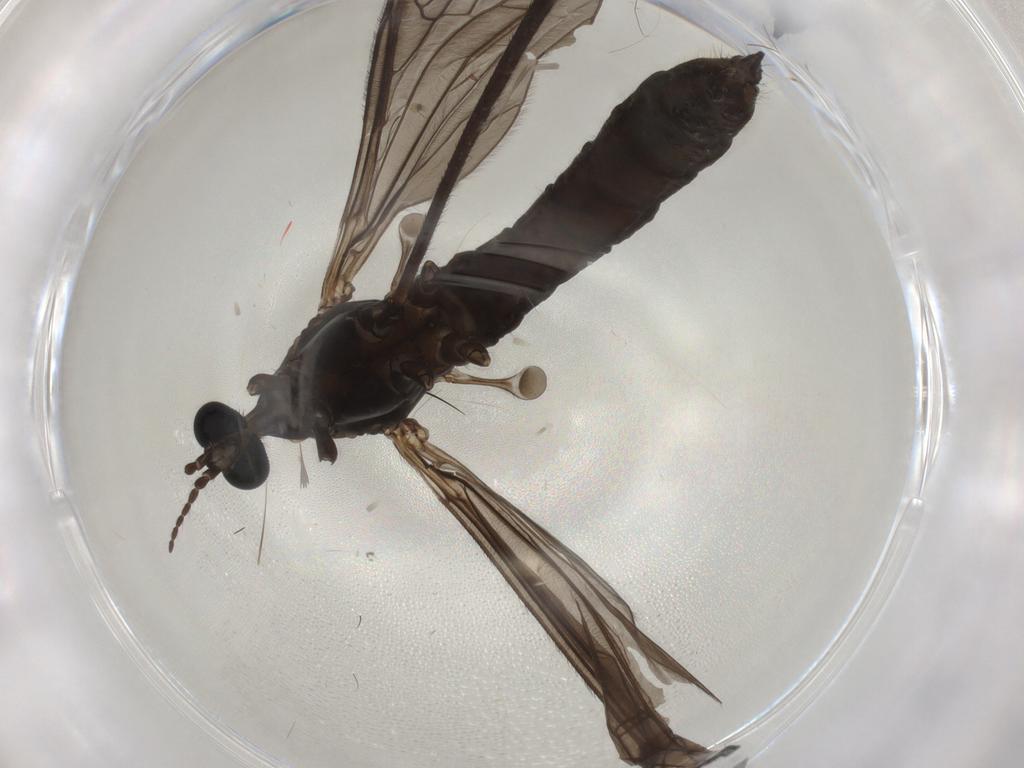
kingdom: Animalia
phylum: Arthropoda
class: Insecta
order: Diptera
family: Limoniidae
